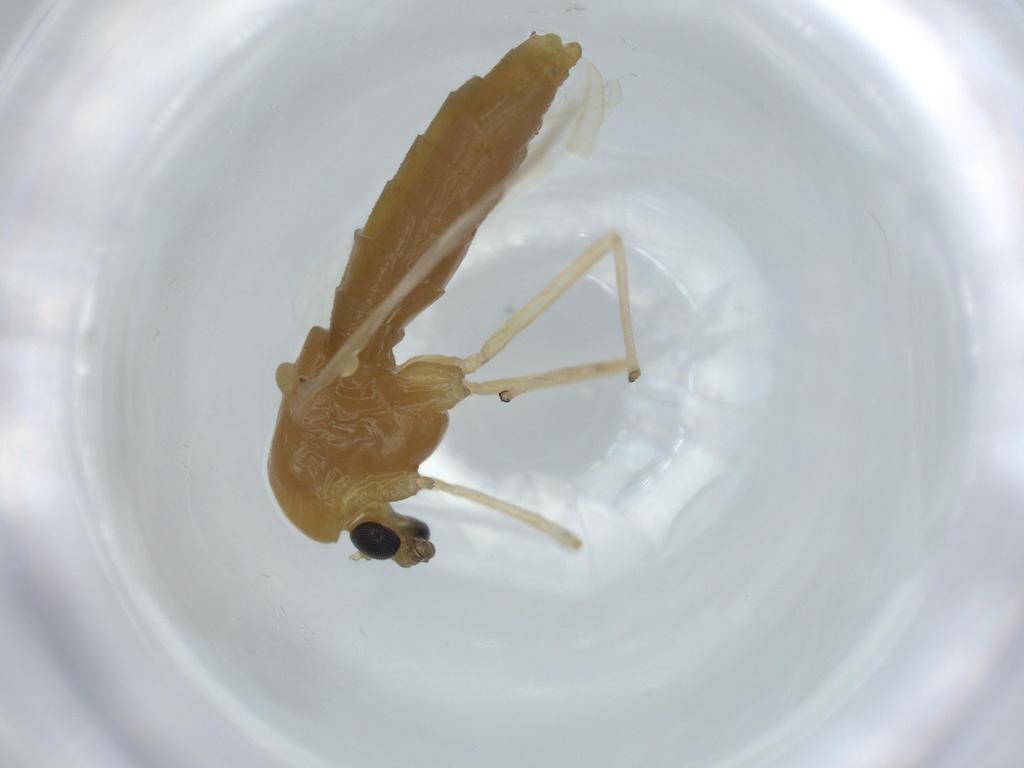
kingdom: Animalia
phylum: Arthropoda
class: Insecta
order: Diptera
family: Chironomidae
